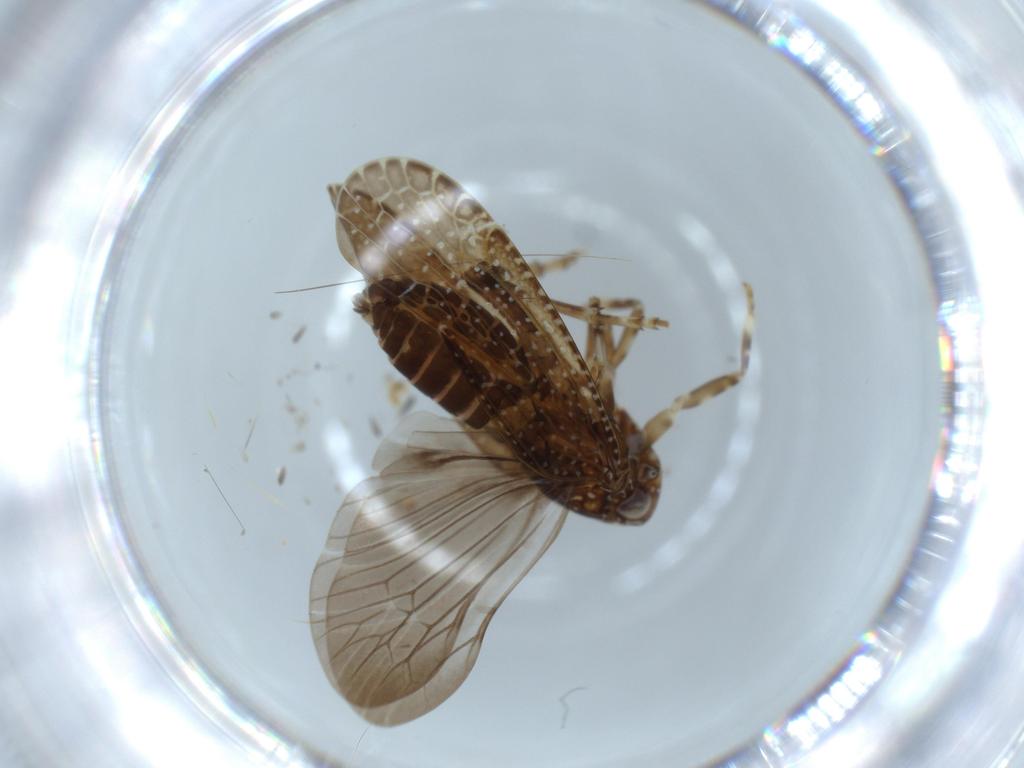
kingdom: Animalia
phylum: Arthropoda
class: Insecta
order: Hemiptera
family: Achilidae
